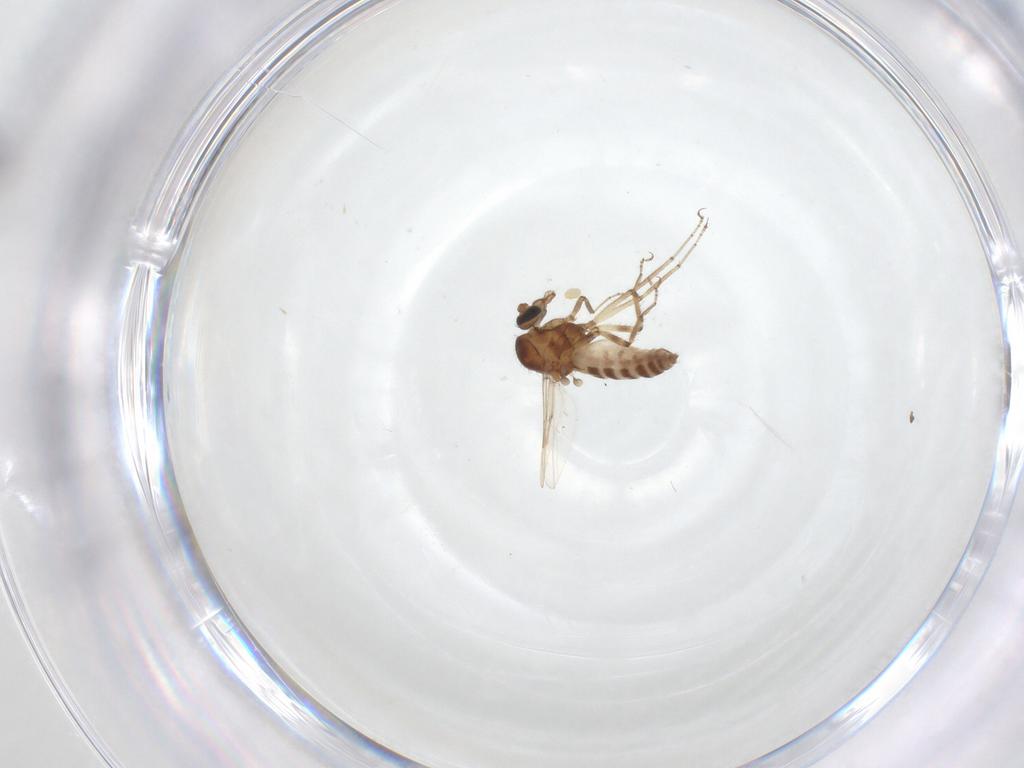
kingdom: Animalia
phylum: Arthropoda
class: Insecta
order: Diptera
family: Ceratopogonidae
